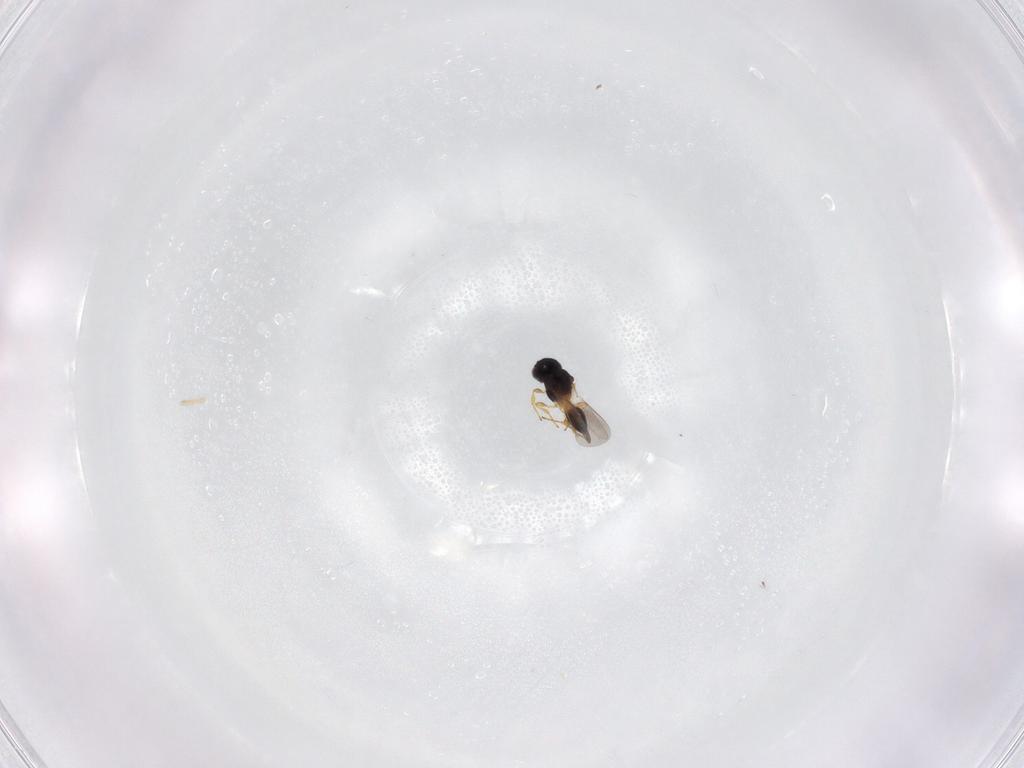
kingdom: Animalia
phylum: Arthropoda
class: Insecta
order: Hymenoptera
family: Platygastridae
